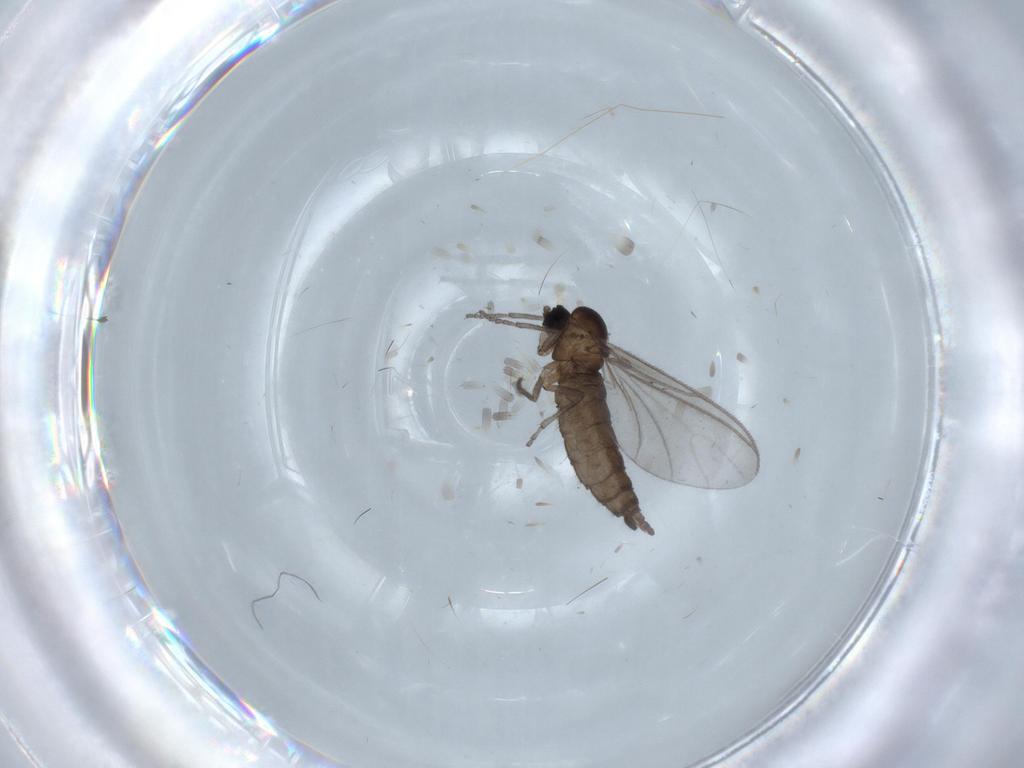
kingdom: Animalia
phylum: Arthropoda
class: Insecta
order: Diptera
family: Sciaridae
